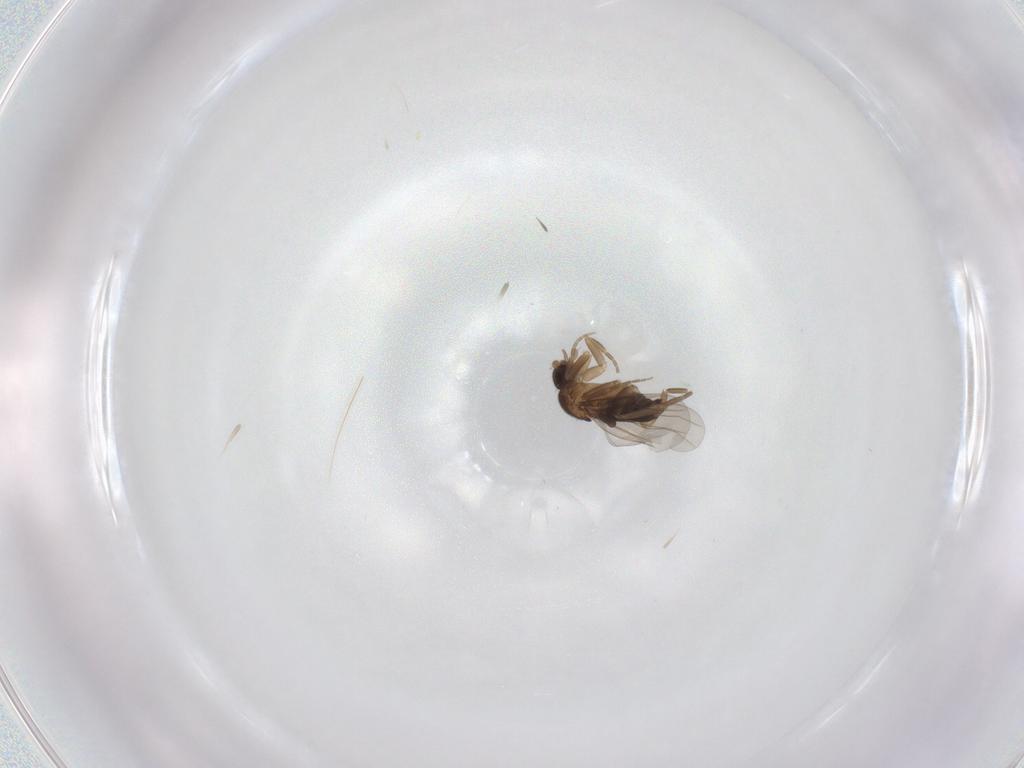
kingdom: Animalia
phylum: Arthropoda
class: Insecta
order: Diptera
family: Phoridae
